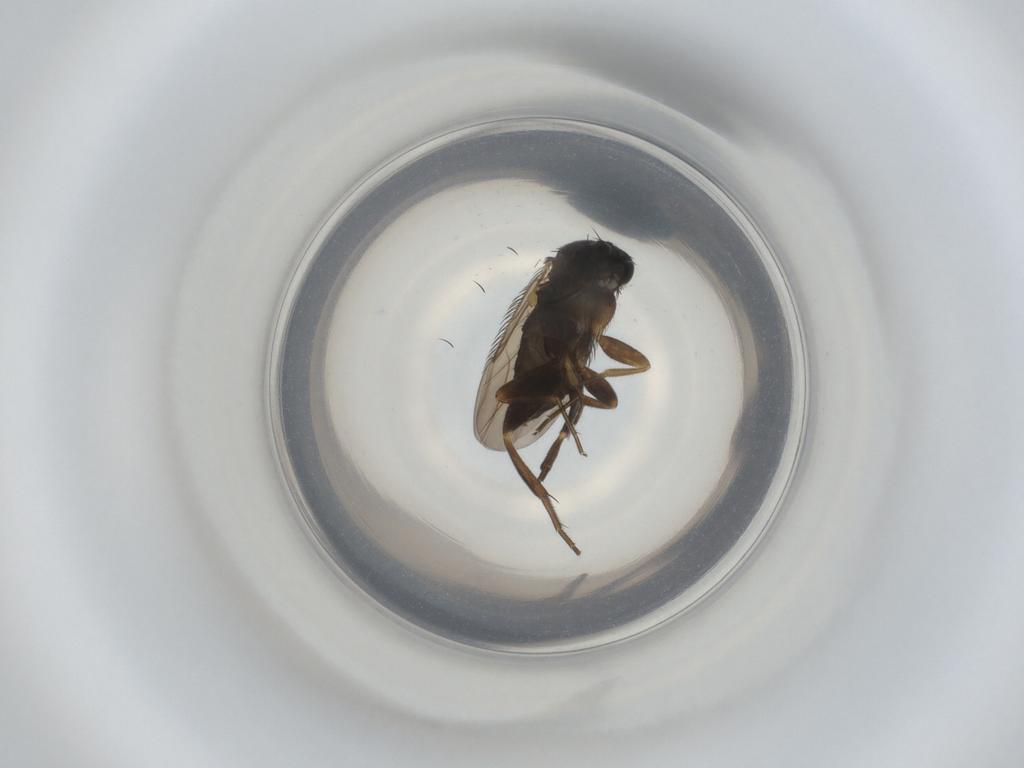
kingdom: Animalia
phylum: Arthropoda
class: Insecta
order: Diptera
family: Phoridae
